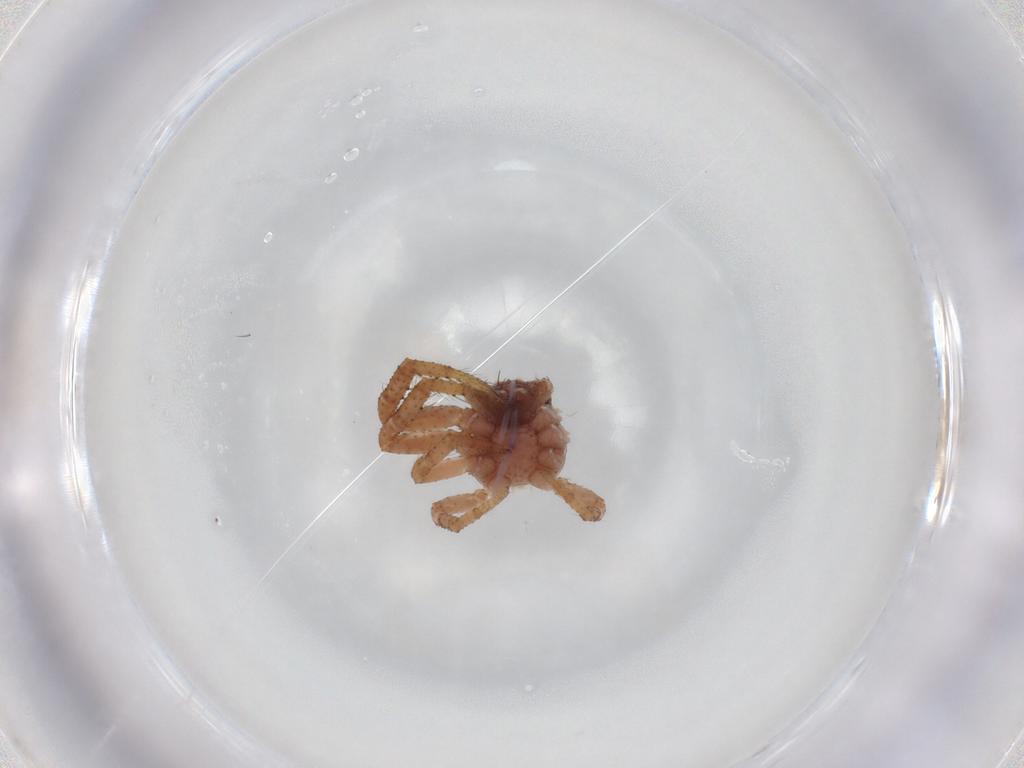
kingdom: Animalia
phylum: Arthropoda
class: Arachnida
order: Araneae
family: Thomisidae
